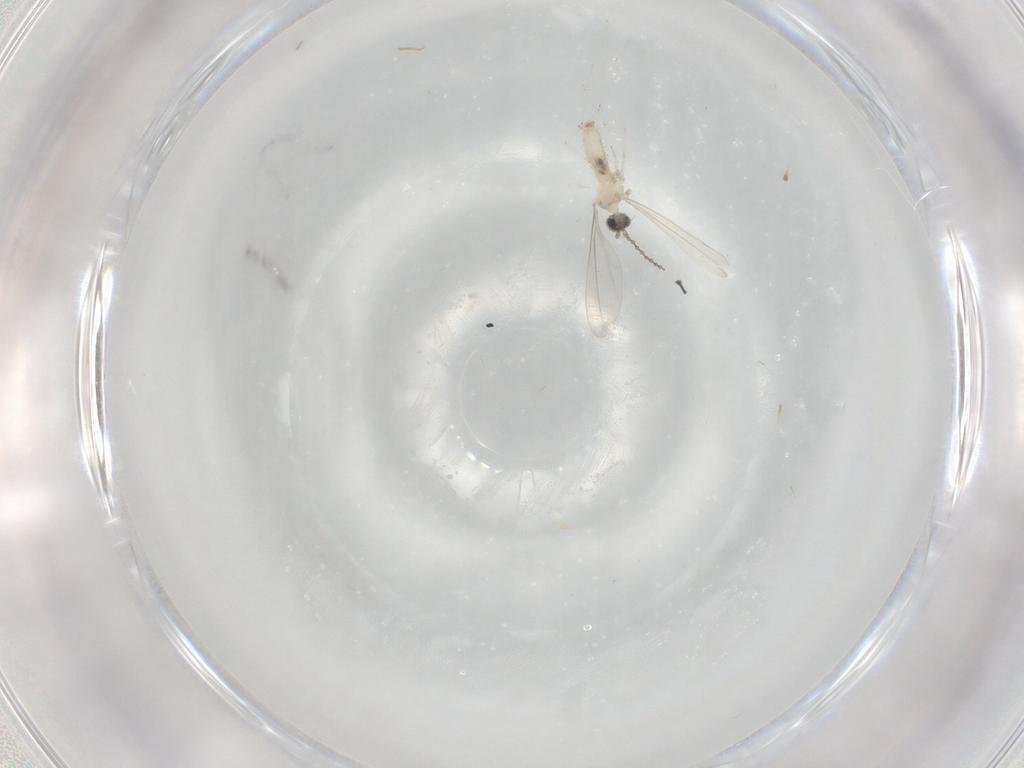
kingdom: Animalia
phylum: Arthropoda
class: Insecta
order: Diptera
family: Cecidomyiidae
